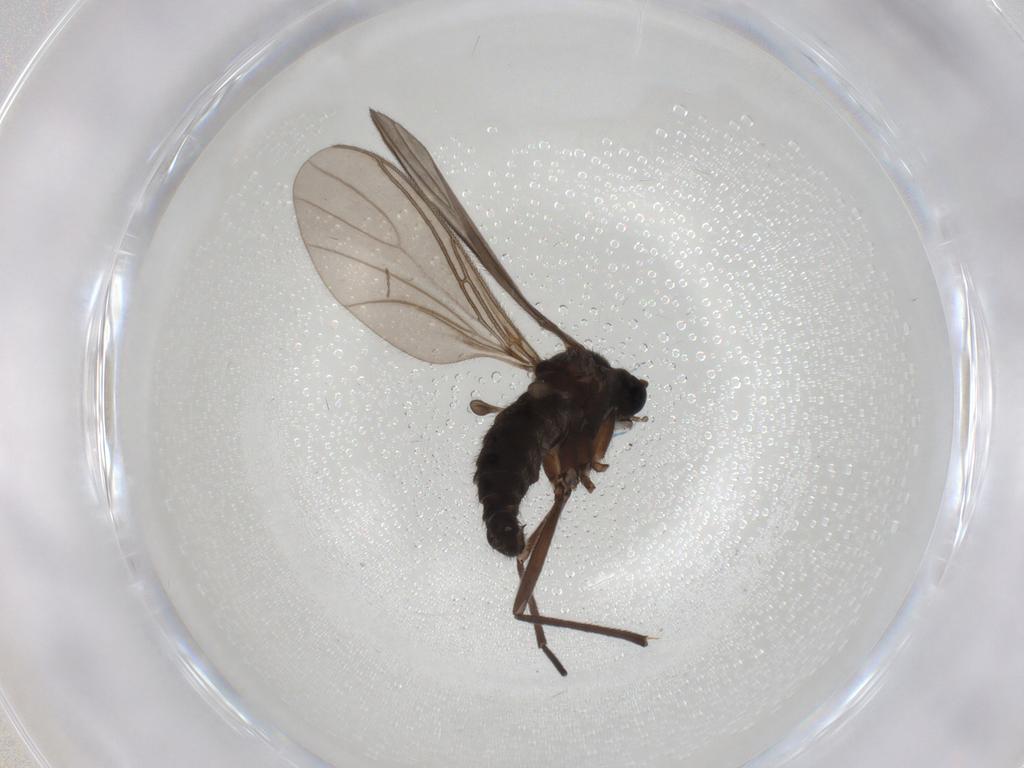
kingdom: Animalia
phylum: Arthropoda
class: Insecta
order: Diptera
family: Sciaridae
